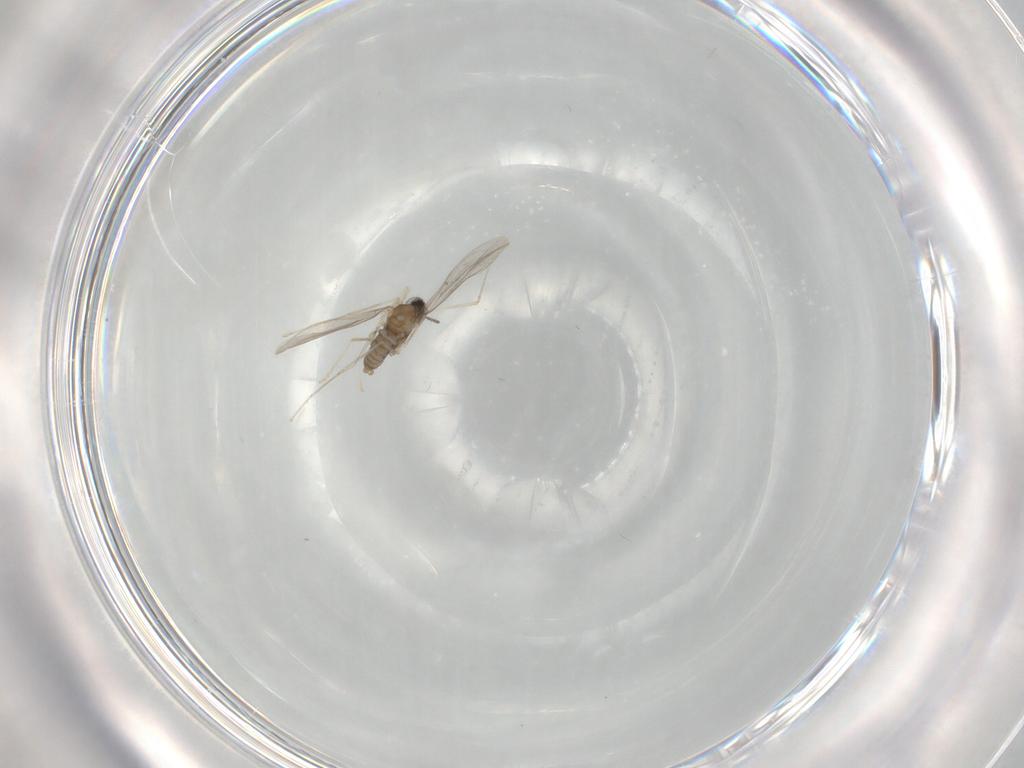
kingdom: Animalia
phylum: Arthropoda
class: Insecta
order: Diptera
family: Cecidomyiidae
